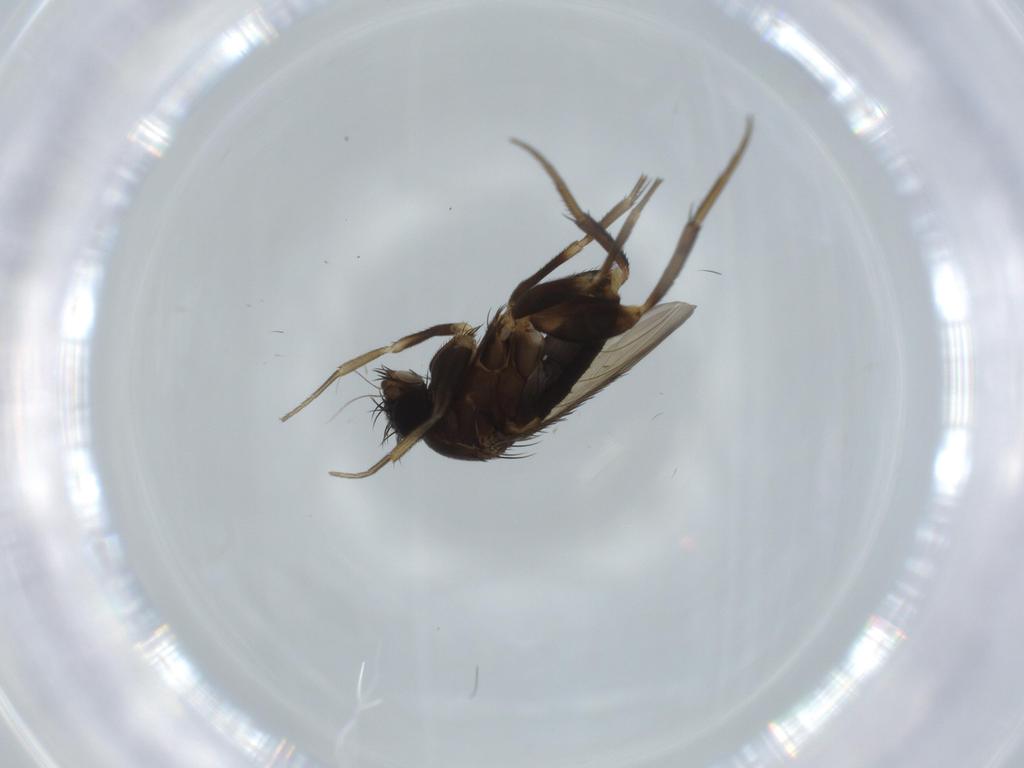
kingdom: Animalia
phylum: Arthropoda
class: Insecta
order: Diptera
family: Phoridae
